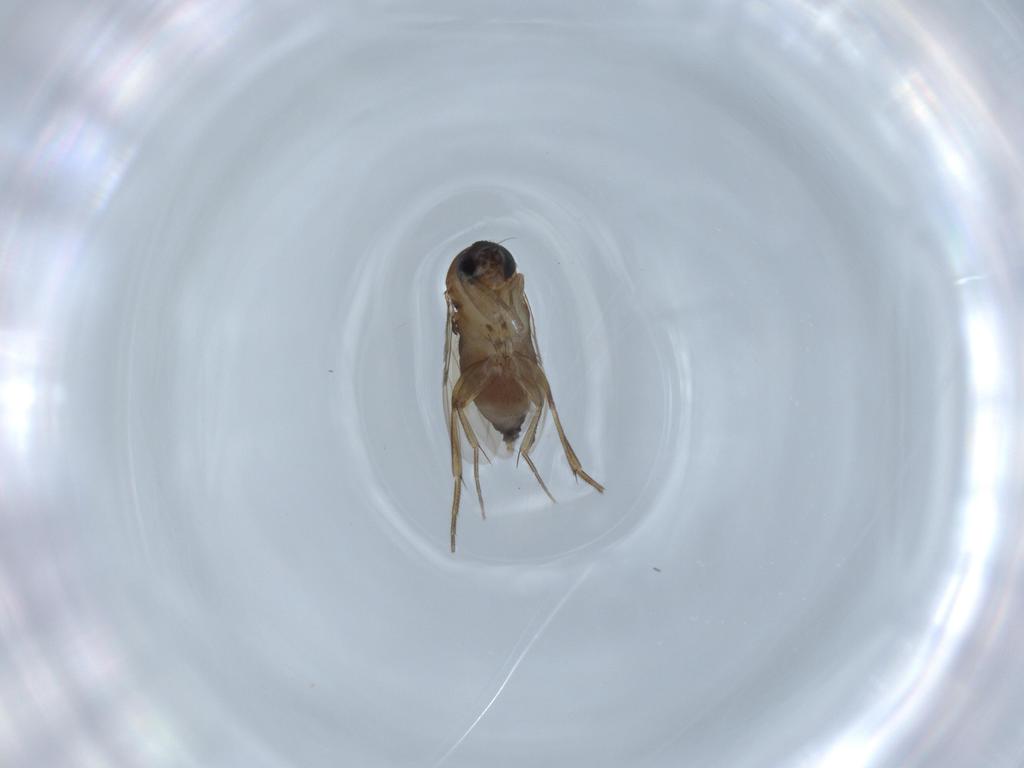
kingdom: Animalia
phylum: Arthropoda
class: Insecta
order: Diptera
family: Phoridae
